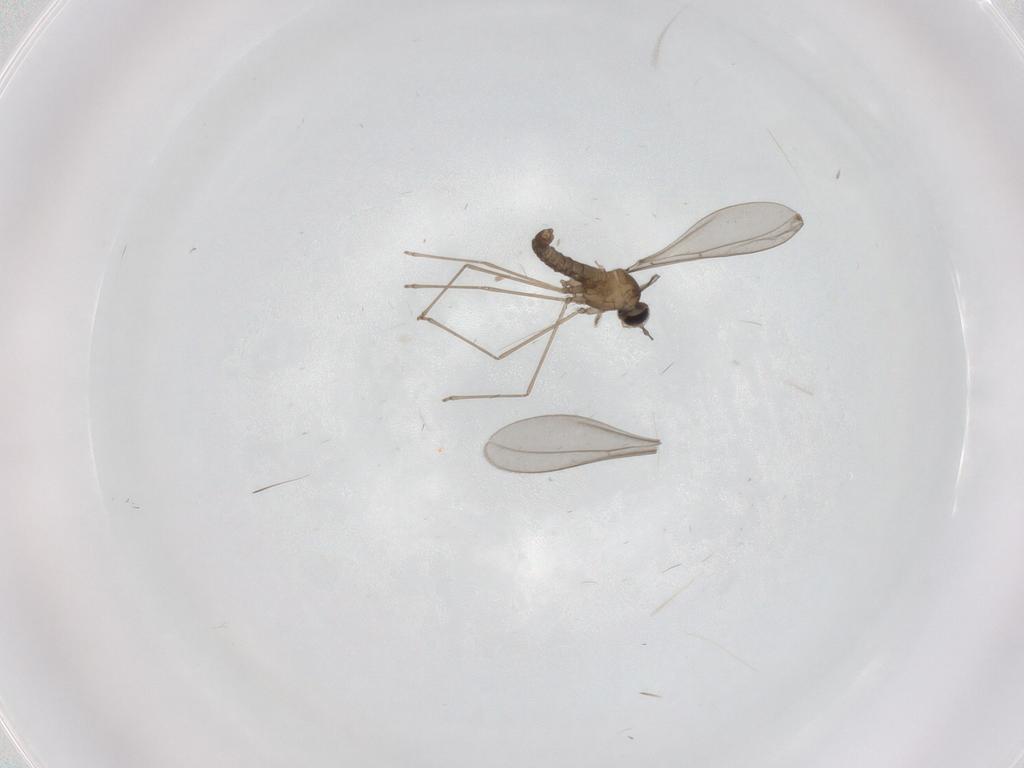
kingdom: Animalia
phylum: Arthropoda
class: Insecta
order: Diptera
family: Cecidomyiidae
